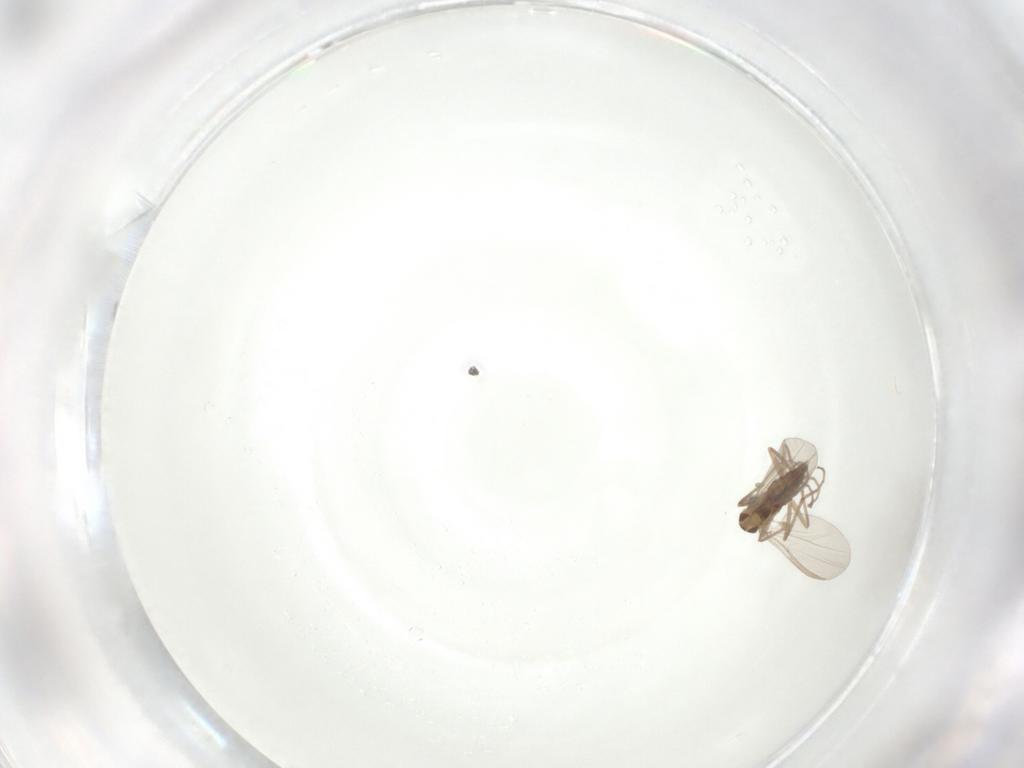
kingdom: Animalia
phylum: Arthropoda
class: Insecta
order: Diptera
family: Chironomidae
